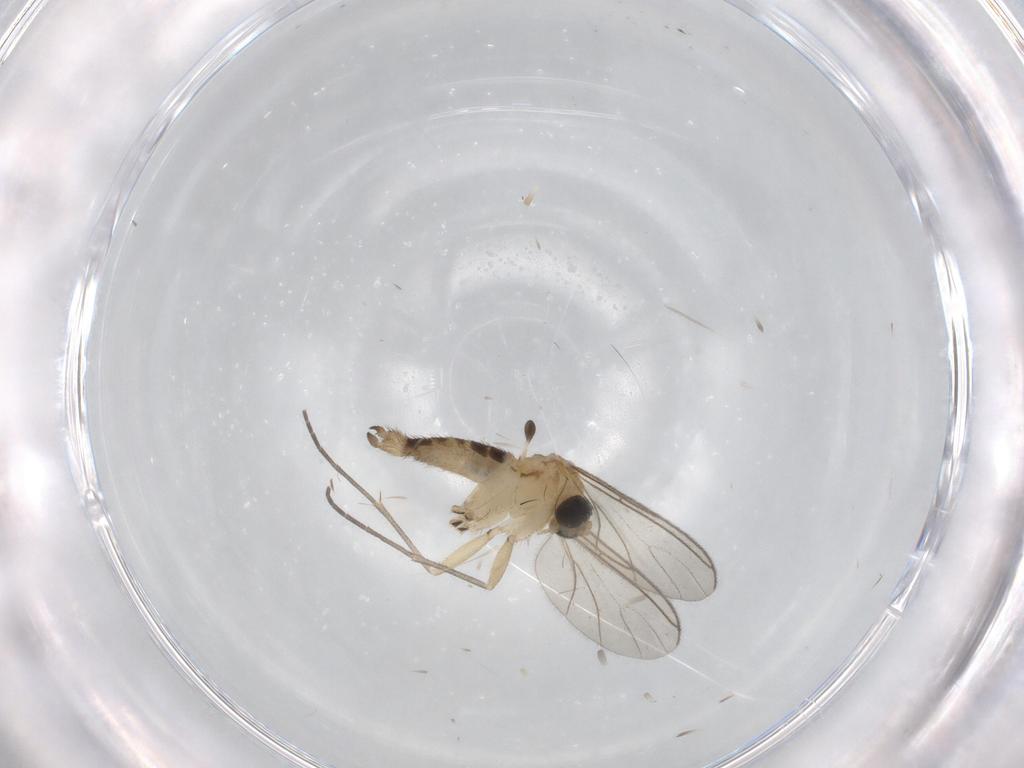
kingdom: Animalia
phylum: Arthropoda
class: Insecta
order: Diptera
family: Sciaridae
